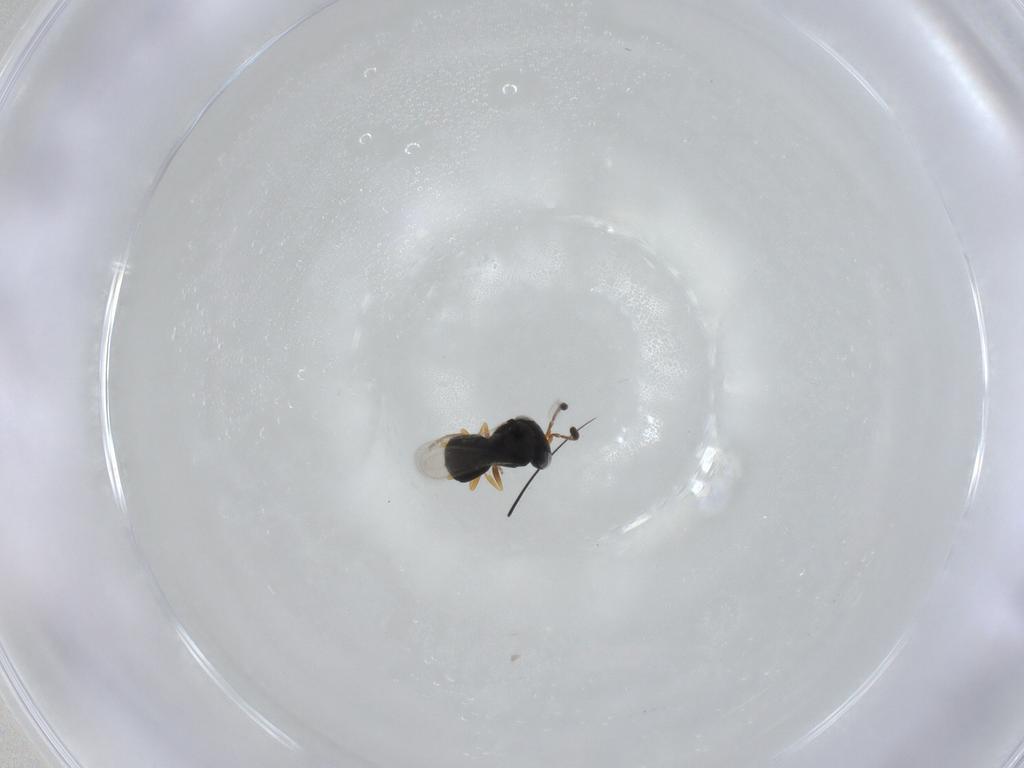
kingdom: Animalia
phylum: Arthropoda
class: Insecta
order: Hymenoptera
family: Scelionidae
